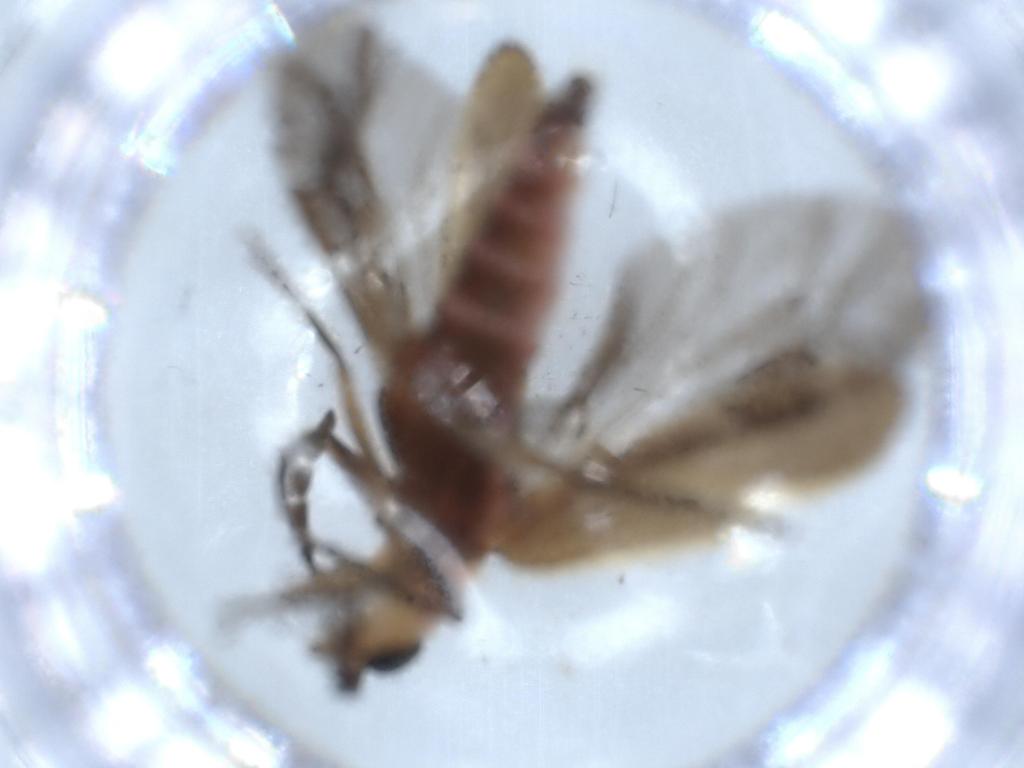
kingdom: Animalia
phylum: Arthropoda
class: Insecta
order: Coleoptera
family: Cleridae
